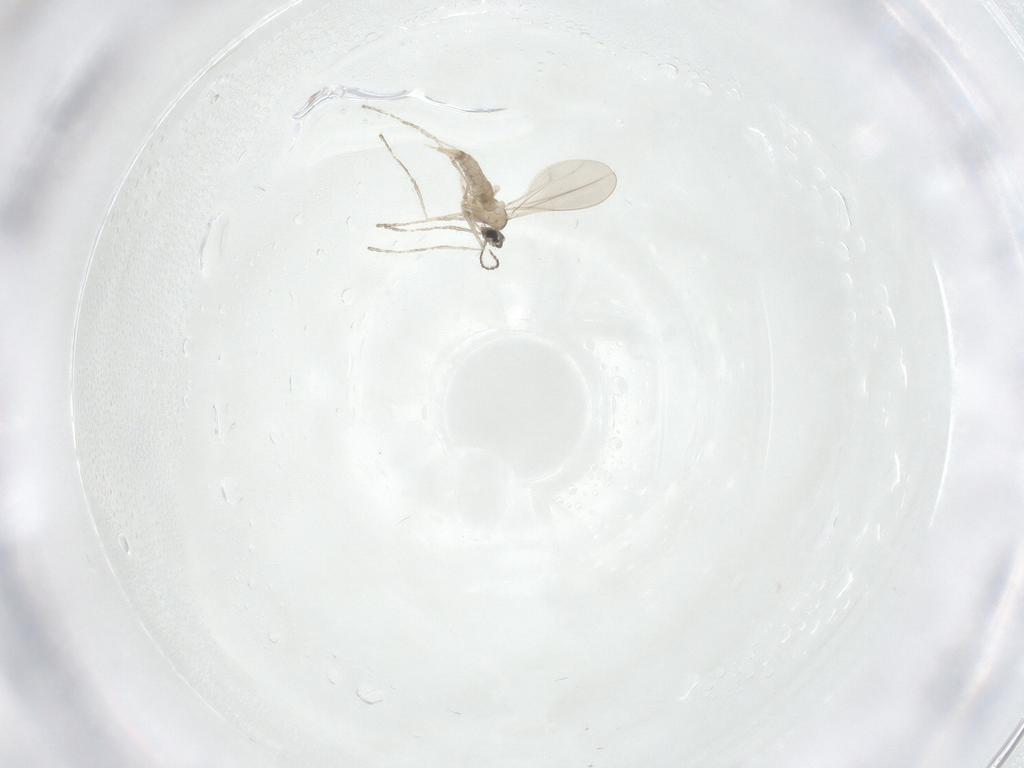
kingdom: Animalia
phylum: Arthropoda
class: Insecta
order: Diptera
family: Cecidomyiidae
